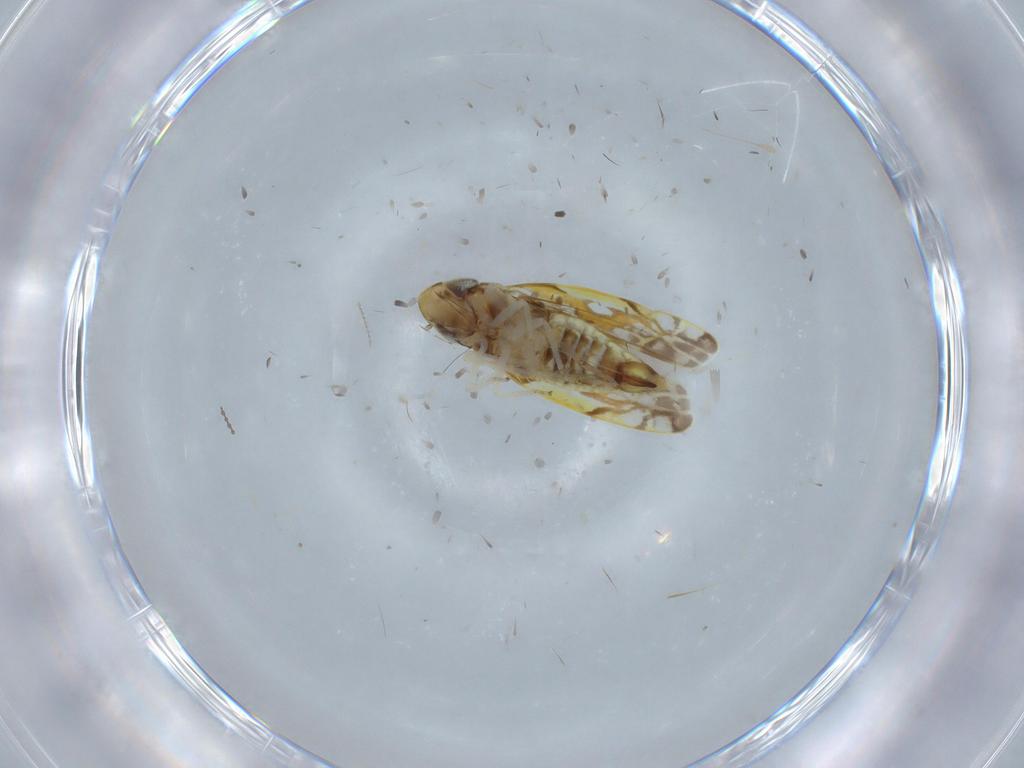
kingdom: Animalia
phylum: Arthropoda
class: Insecta
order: Hemiptera
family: Cicadellidae
